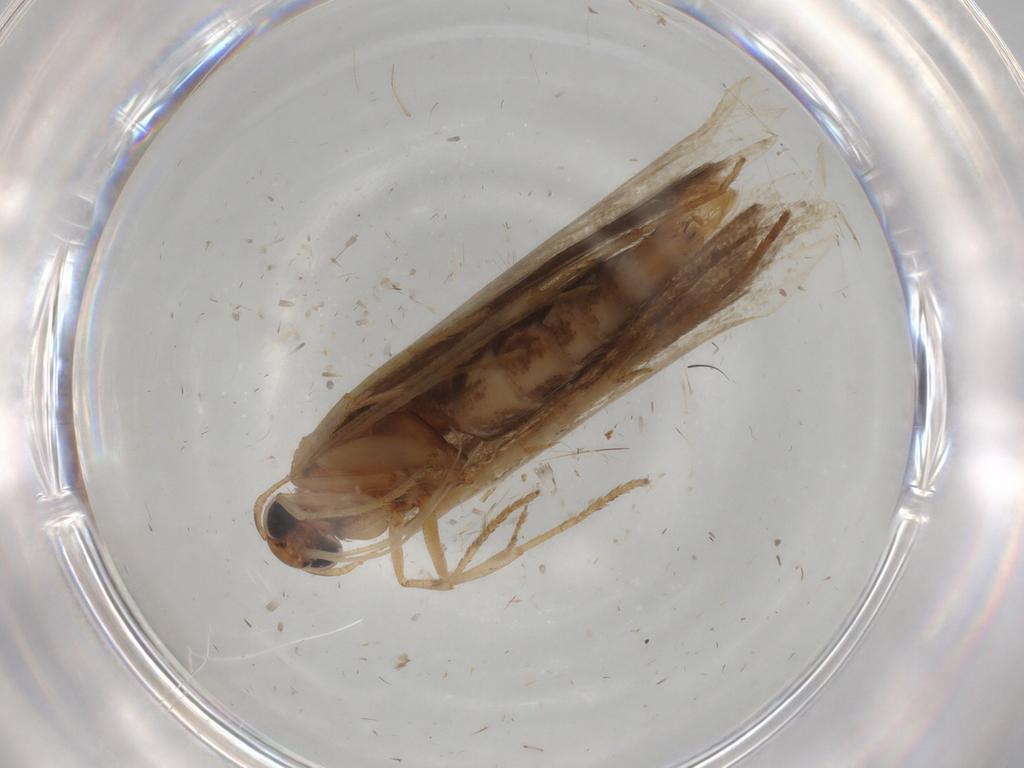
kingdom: Animalia
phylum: Arthropoda
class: Insecta
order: Lepidoptera
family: Gelechiidae
